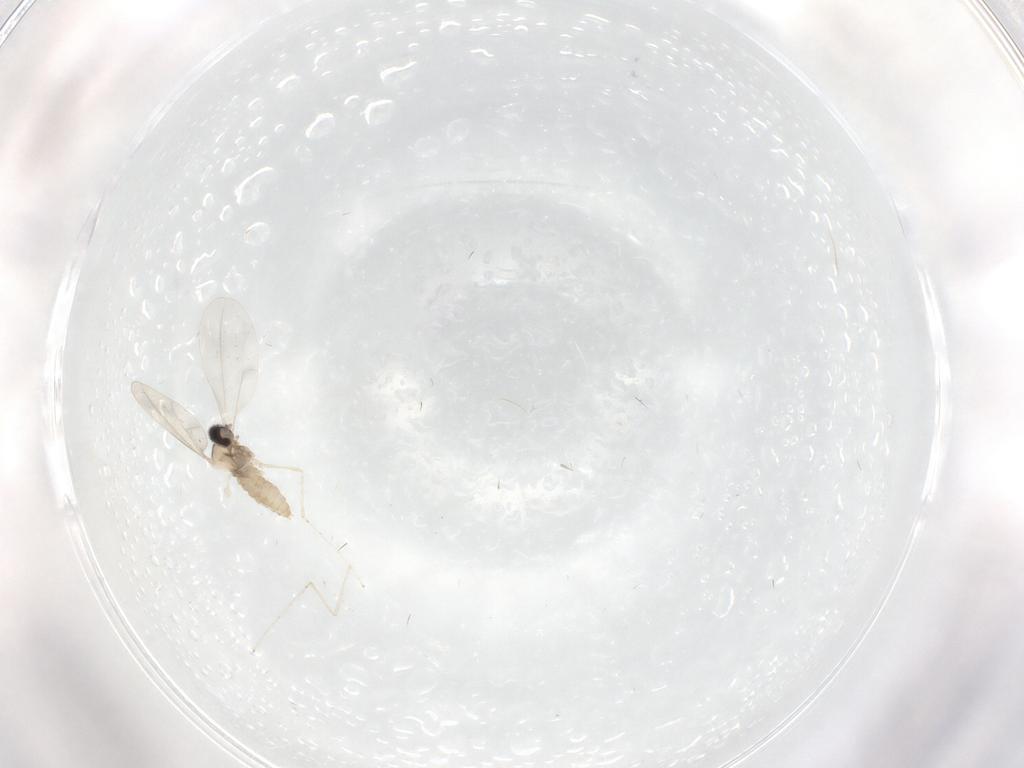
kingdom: Animalia
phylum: Arthropoda
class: Insecta
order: Diptera
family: Cecidomyiidae
